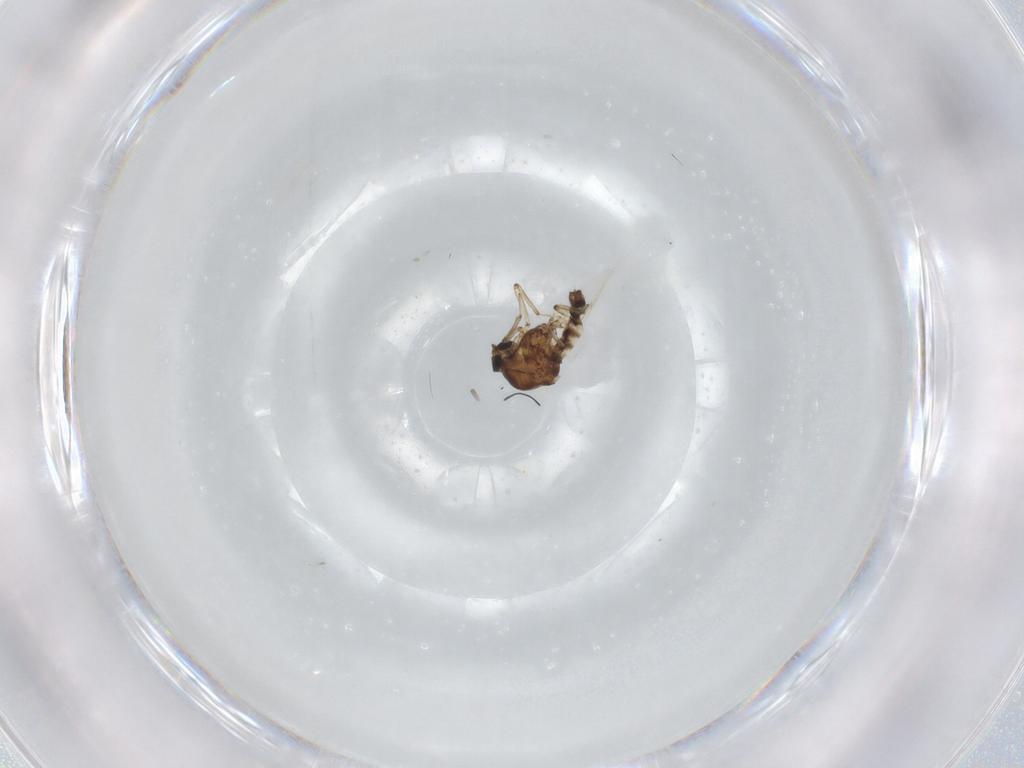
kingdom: Animalia
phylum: Arthropoda
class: Insecta
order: Diptera
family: Ceratopogonidae
